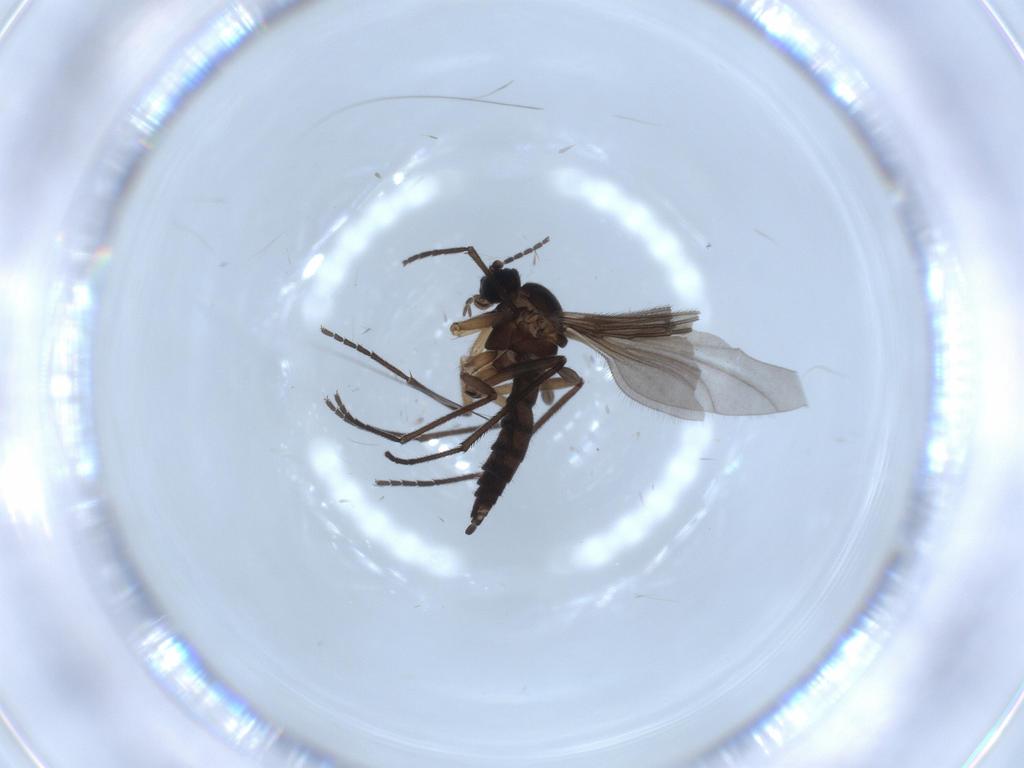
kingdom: Animalia
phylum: Arthropoda
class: Insecta
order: Diptera
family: Sciaridae
